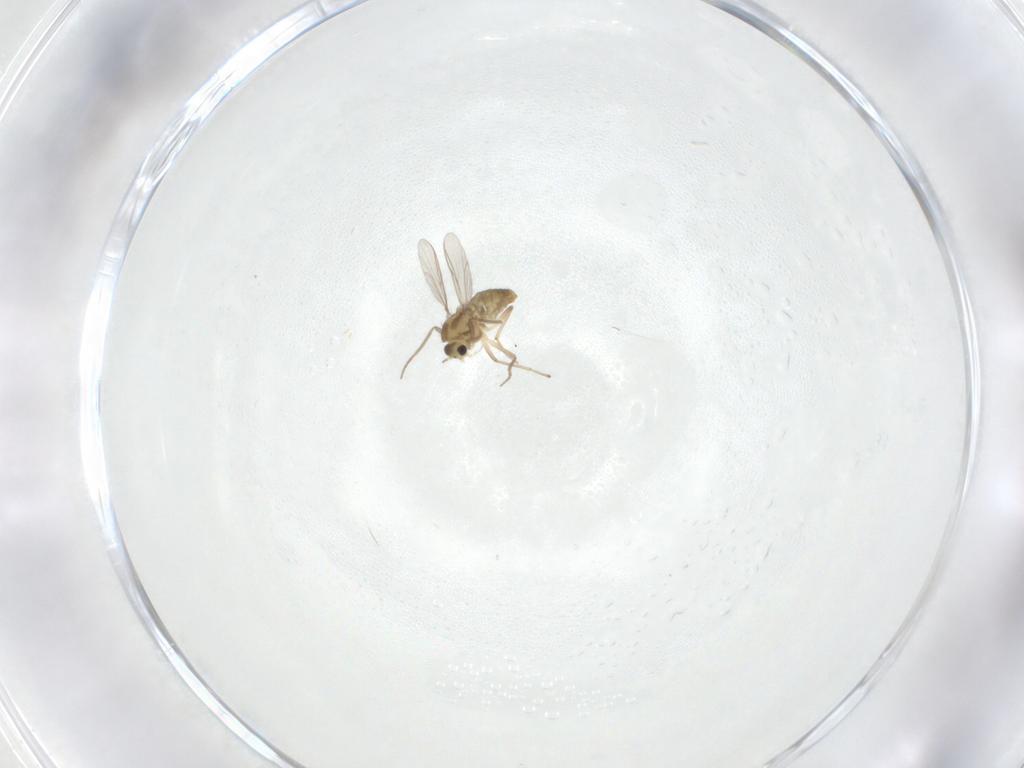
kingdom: Animalia
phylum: Arthropoda
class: Insecta
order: Diptera
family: Chironomidae
